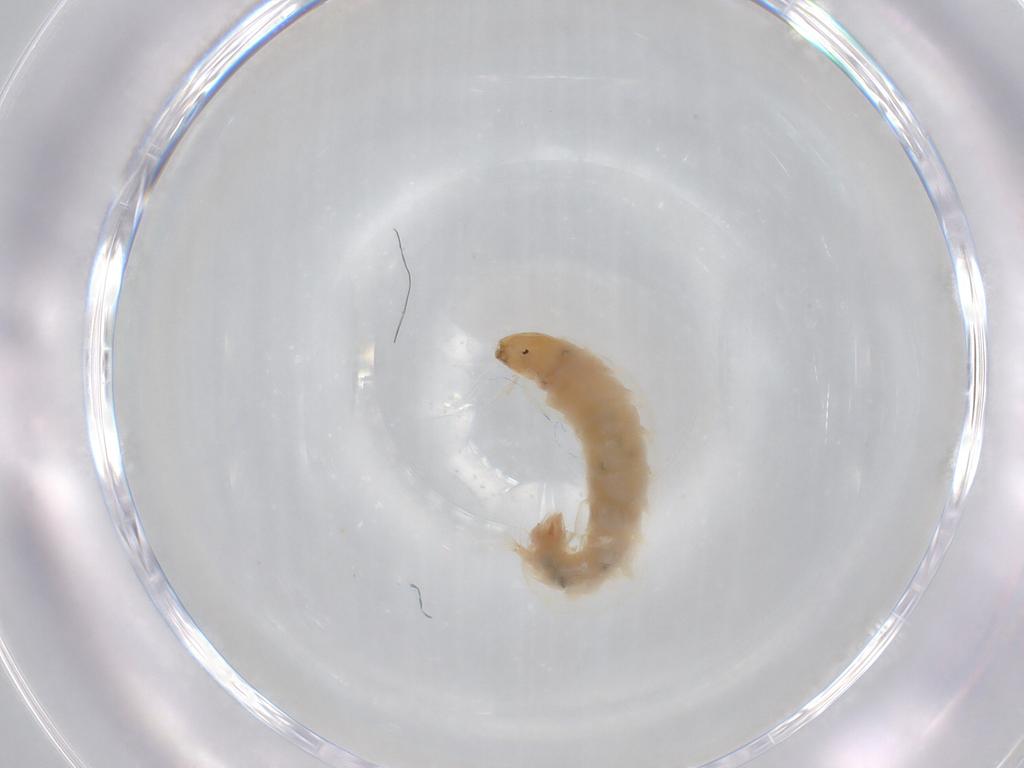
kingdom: Animalia
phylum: Arthropoda
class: Insecta
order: Diptera
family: Chironomidae
